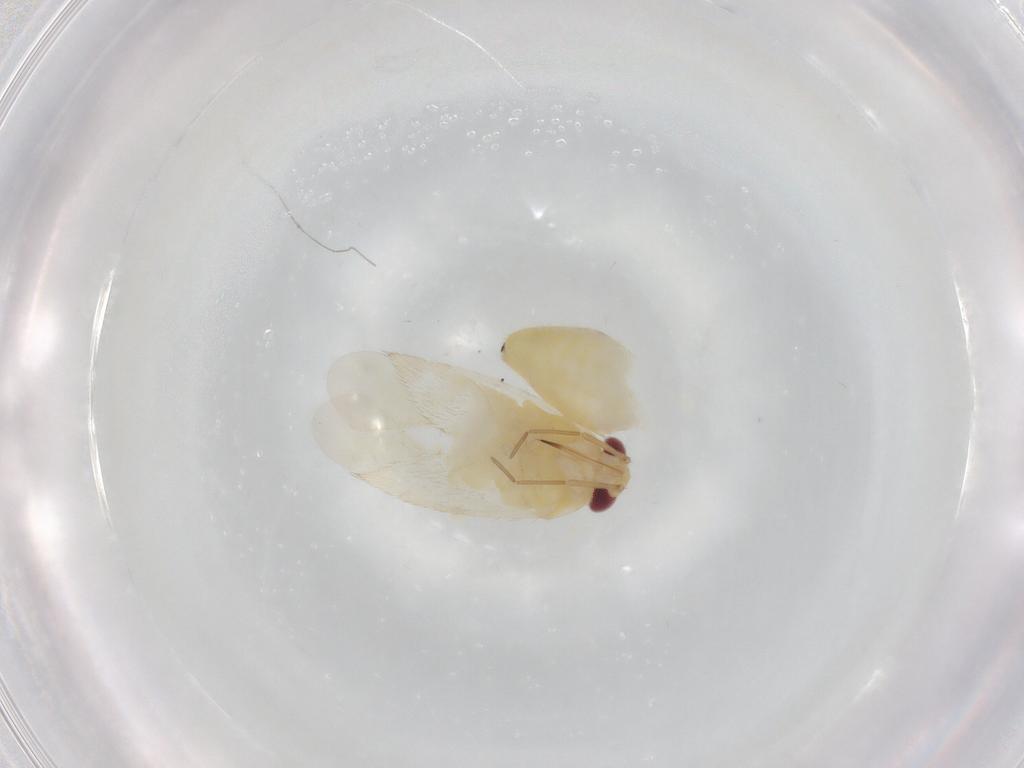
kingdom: Animalia
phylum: Arthropoda
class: Insecta
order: Hemiptera
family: Miridae
